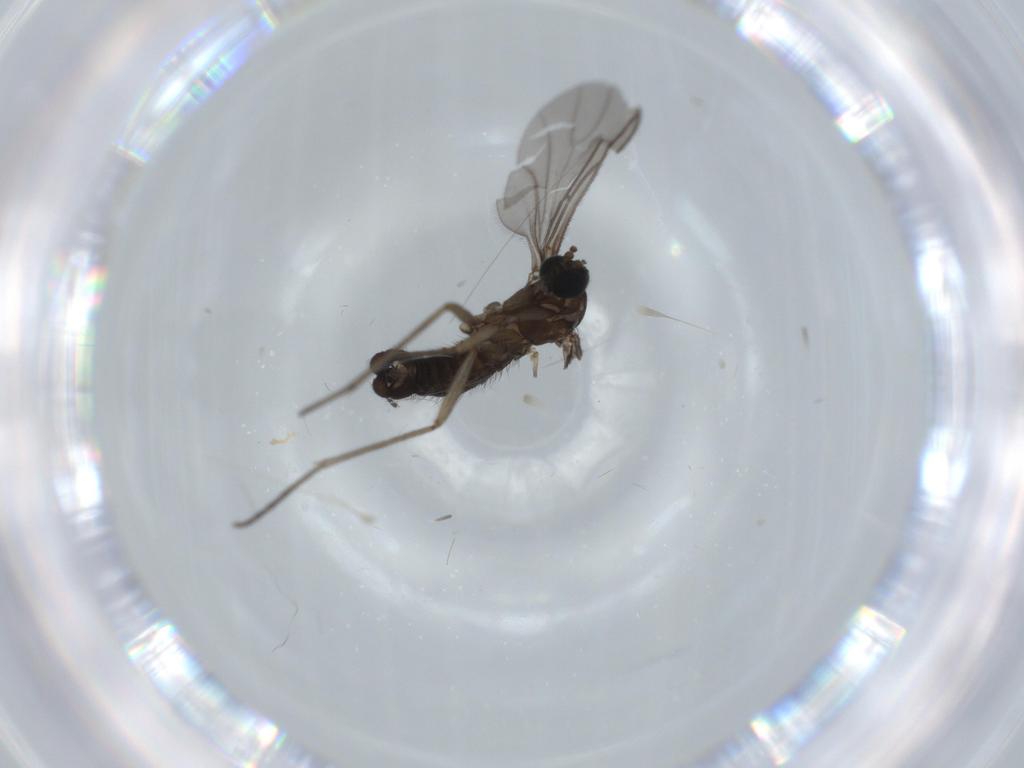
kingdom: Animalia
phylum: Arthropoda
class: Insecta
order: Diptera
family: Sciaridae
